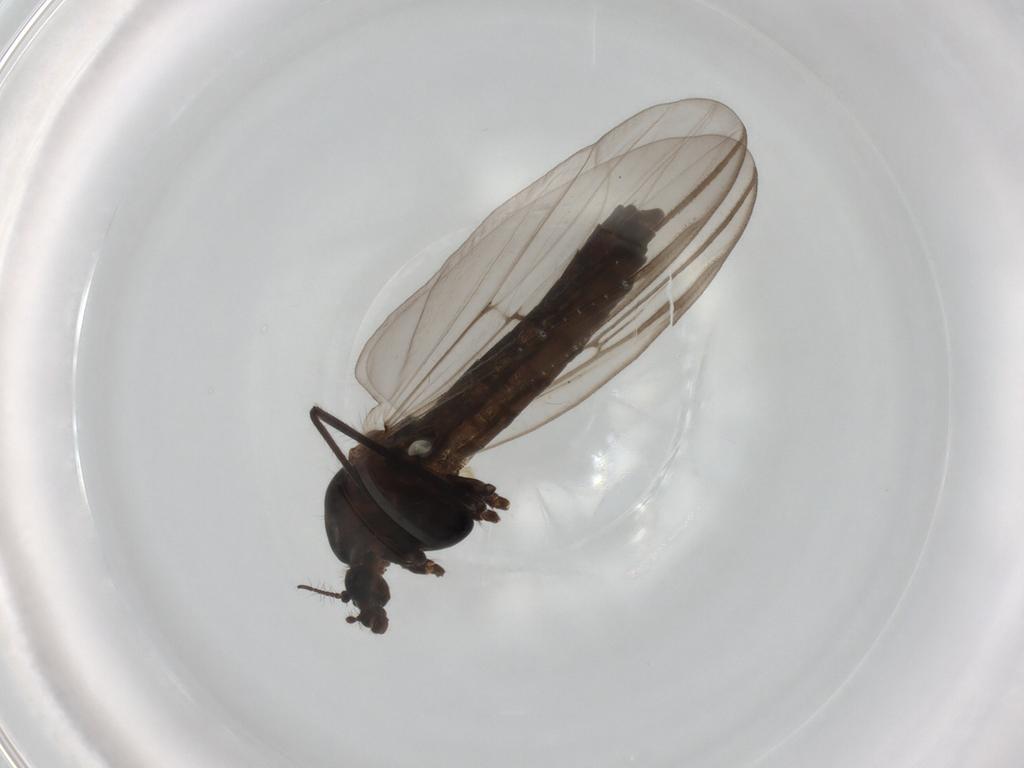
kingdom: Animalia
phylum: Arthropoda
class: Insecta
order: Diptera
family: Chironomidae
